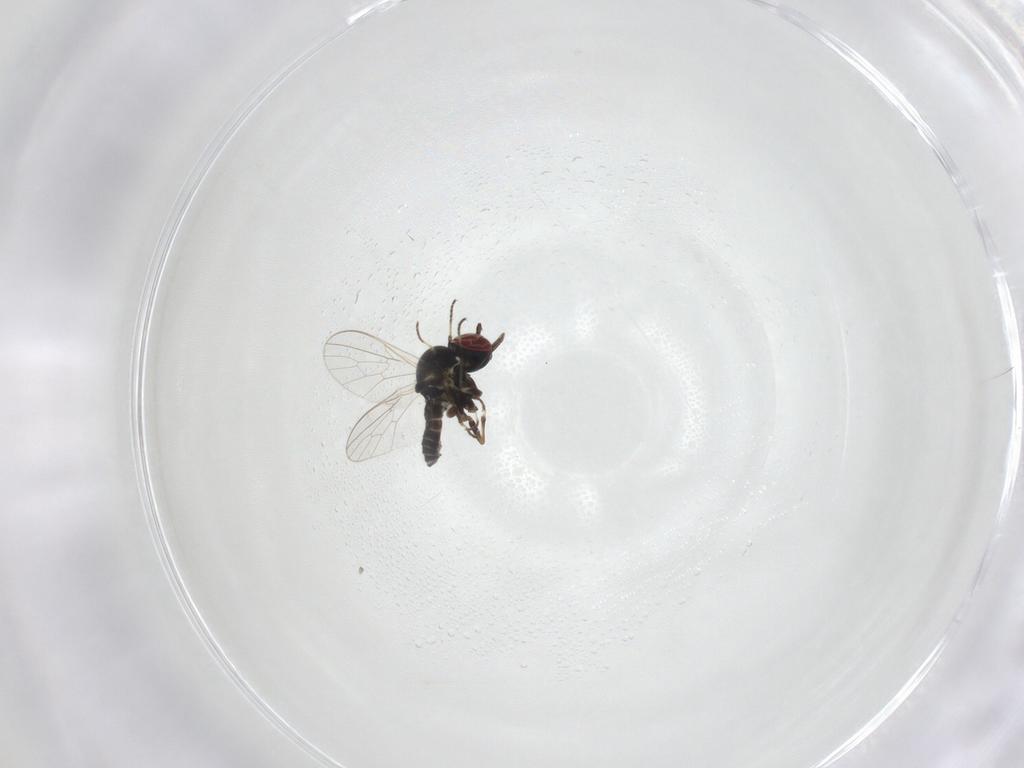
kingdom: Animalia
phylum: Arthropoda
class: Insecta
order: Diptera
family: Mythicomyiidae
